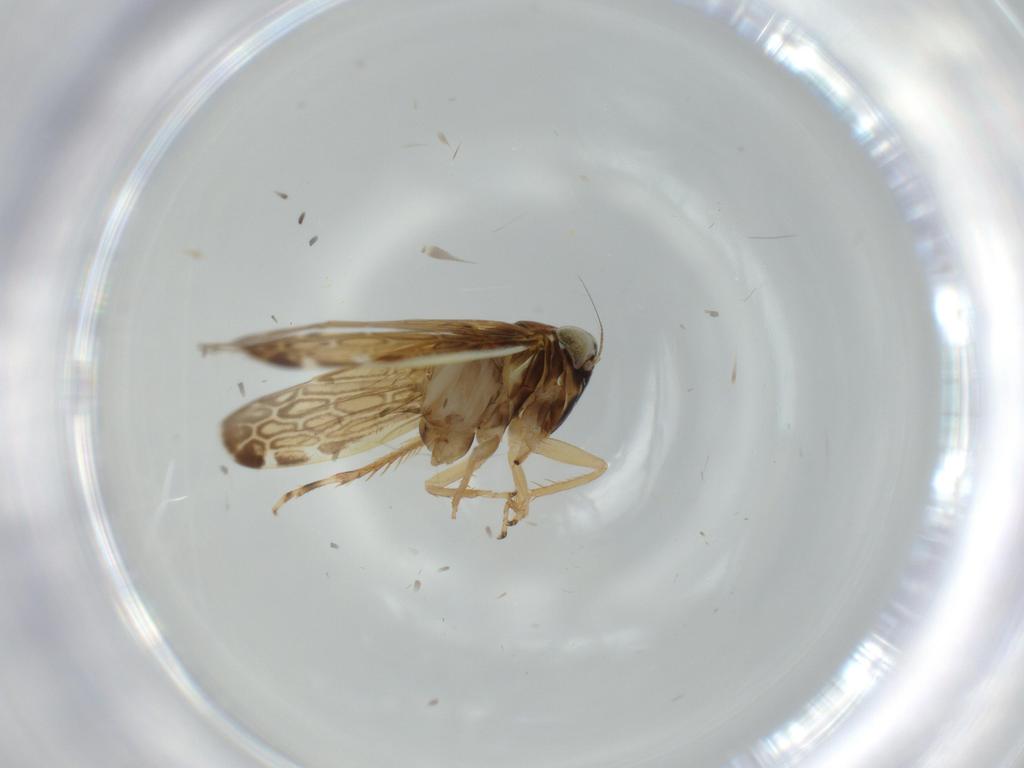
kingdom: Animalia
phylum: Arthropoda
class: Insecta
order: Hemiptera
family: Cicadellidae
